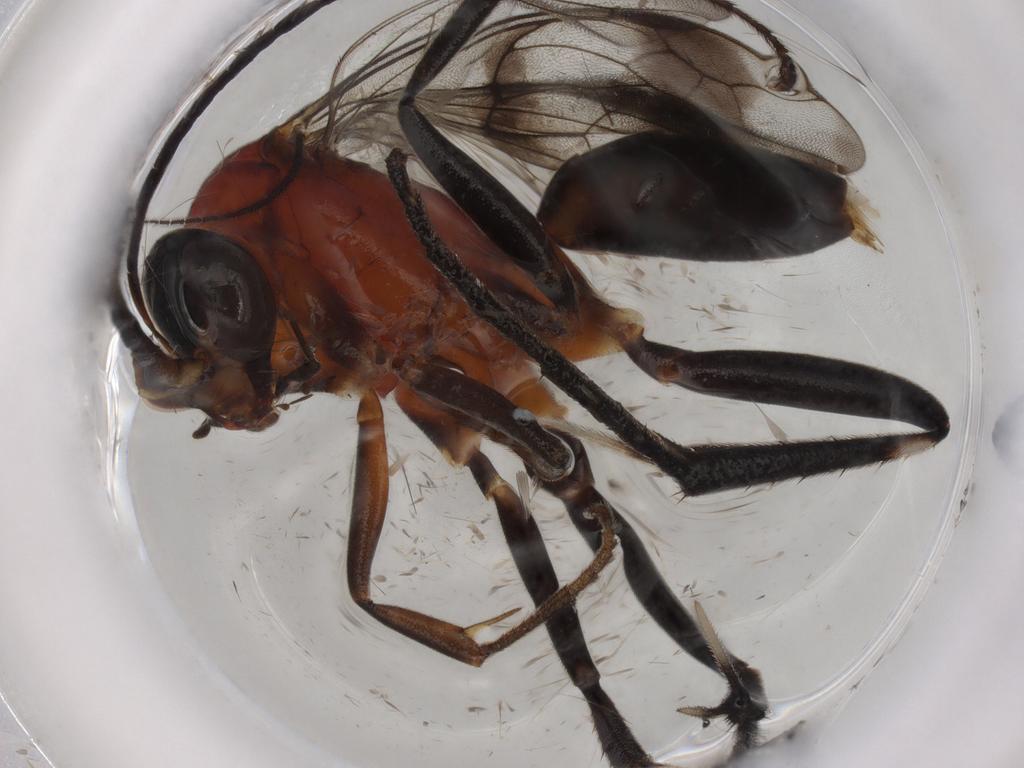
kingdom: Animalia
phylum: Arthropoda
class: Insecta
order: Hymenoptera
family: Pompilidae
